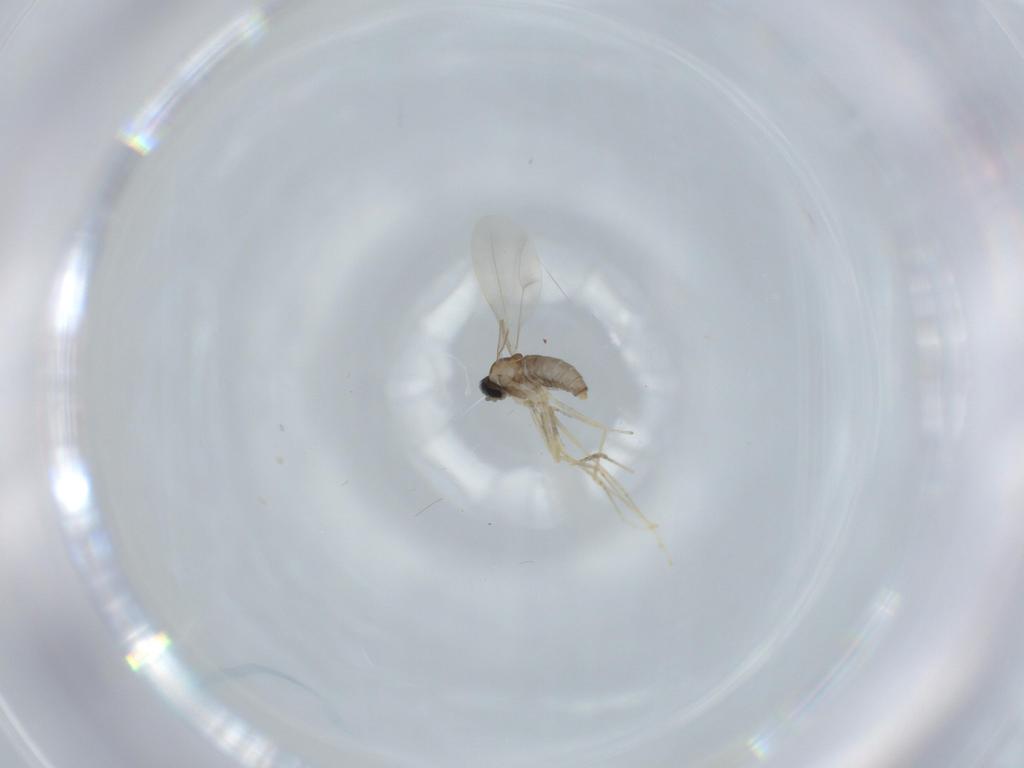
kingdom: Animalia
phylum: Arthropoda
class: Insecta
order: Diptera
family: Cecidomyiidae
